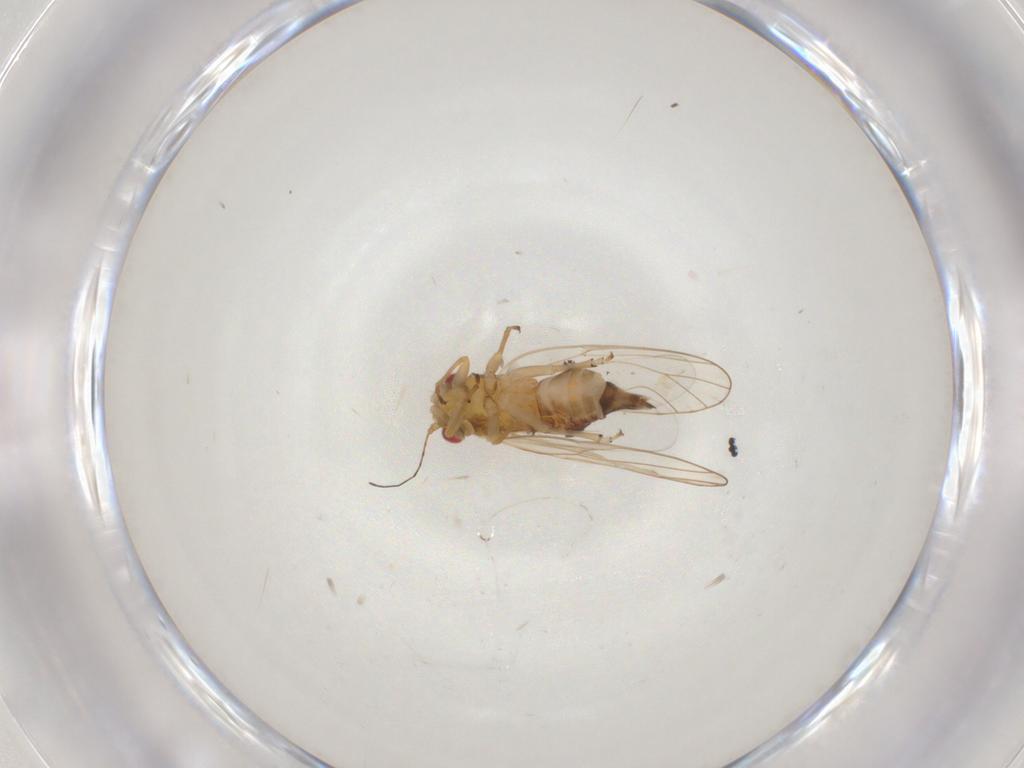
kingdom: Animalia
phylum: Arthropoda
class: Insecta
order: Hemiptera
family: Psyllidae
